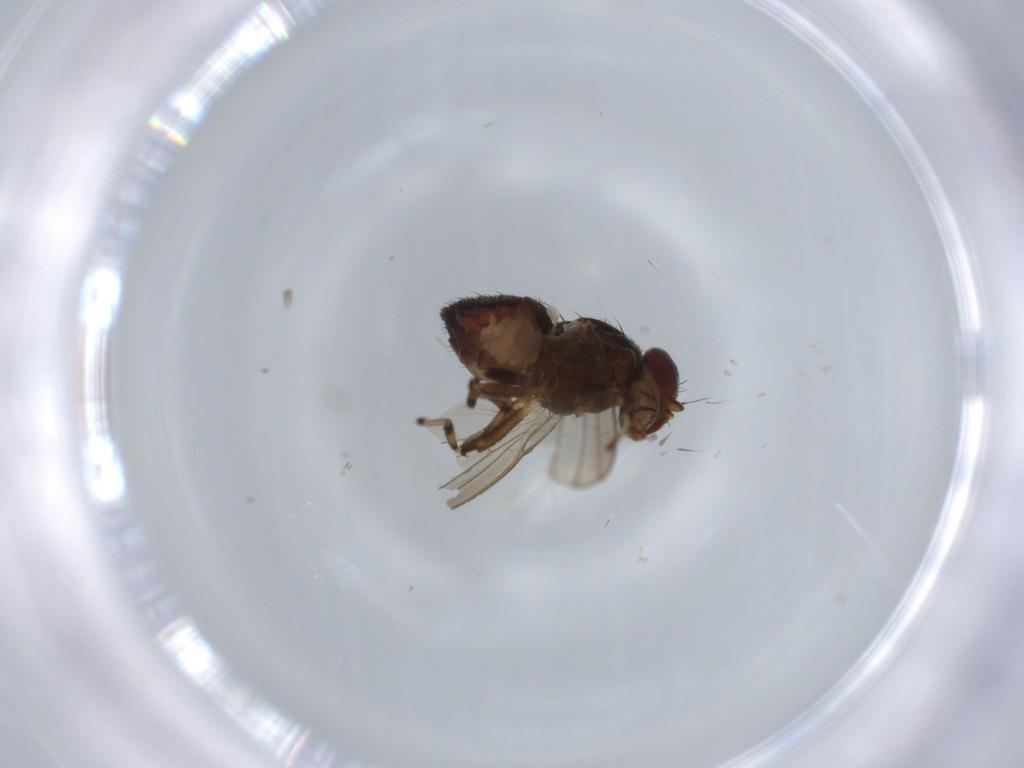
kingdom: Animalia
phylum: Arthropoda
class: Insecta
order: Diptera
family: Heleomyzidae
